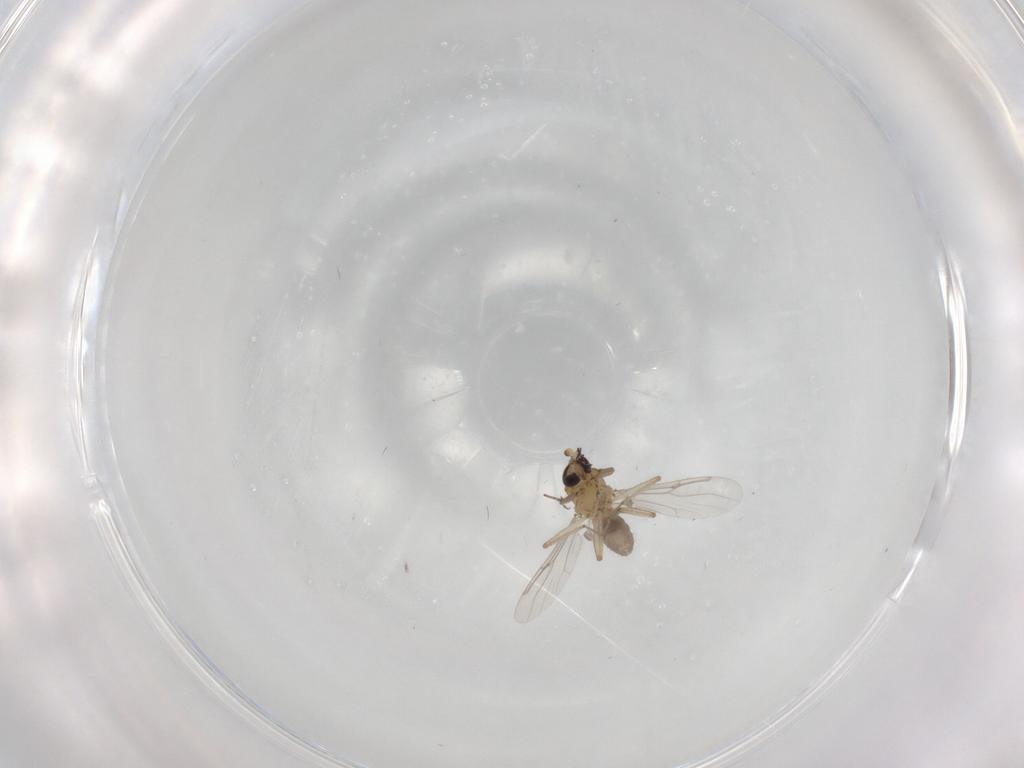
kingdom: Animalia
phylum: Arthropoda
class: Insecta
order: Diptera
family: Chironomidae
